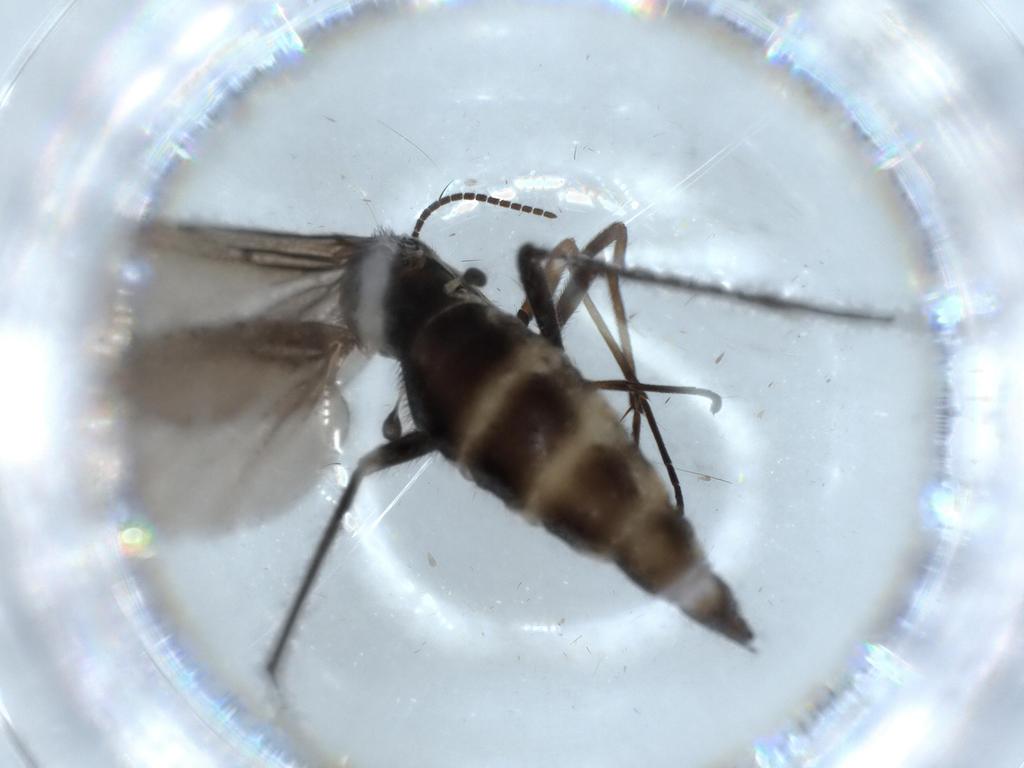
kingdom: Animalia
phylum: Arthropoda
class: Insecta
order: Diptera
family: Sciaridae
